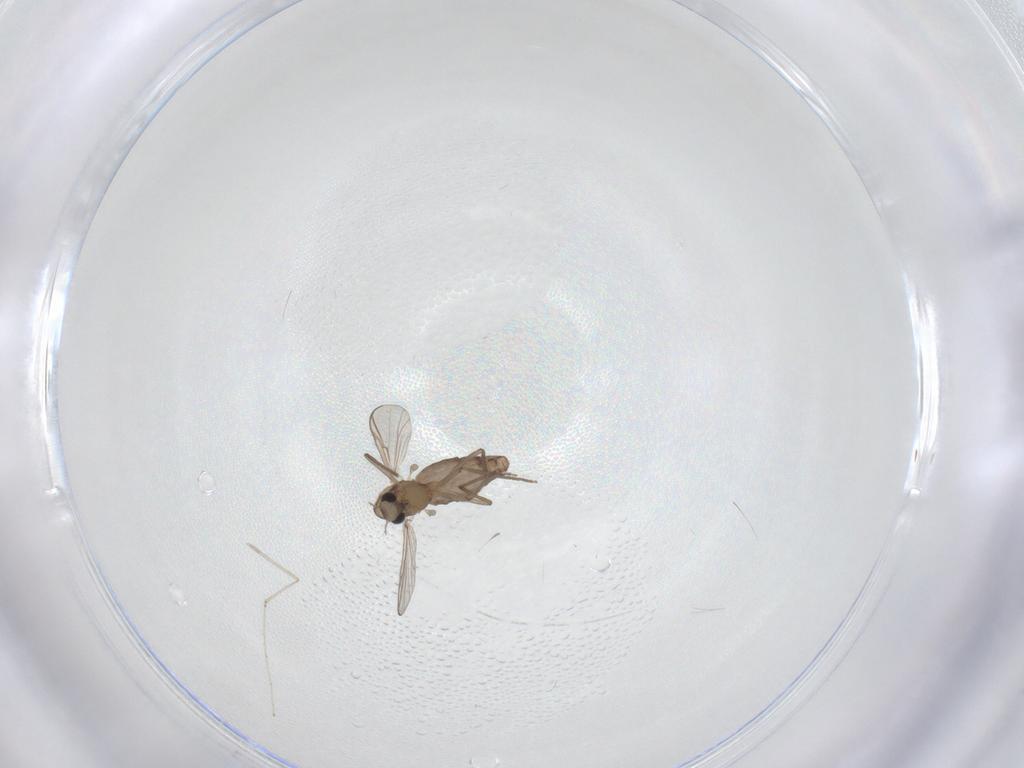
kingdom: Animalia
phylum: Arthropoda
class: Insecta
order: Diptera
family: Chironomidae
